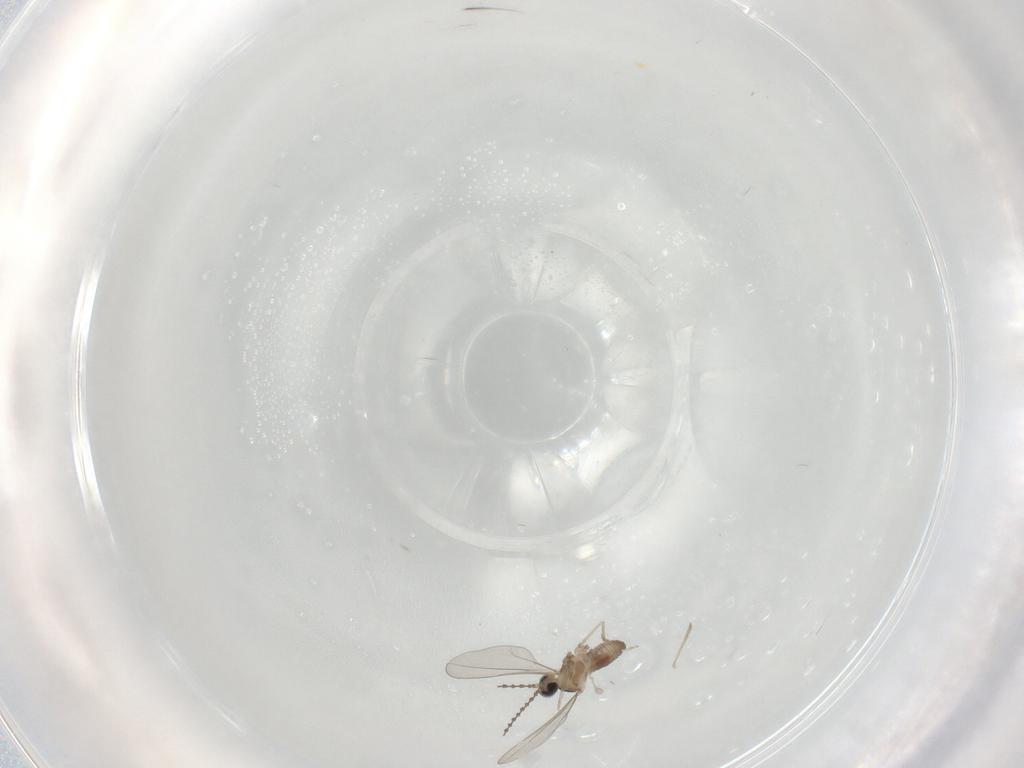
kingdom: Animalia
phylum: Arthropoda
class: Insecta
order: Diptera
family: Cecidomyiidae
